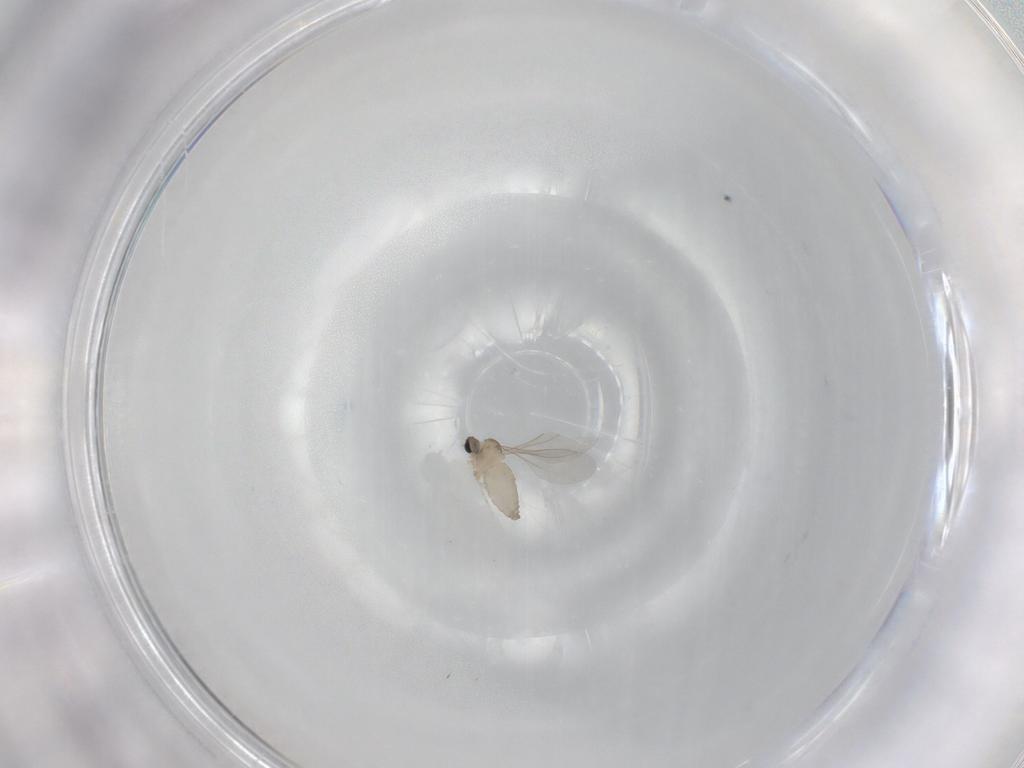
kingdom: Animalia
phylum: Arthropoda
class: Insecta
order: Diptera
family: Cecidomyiidae
